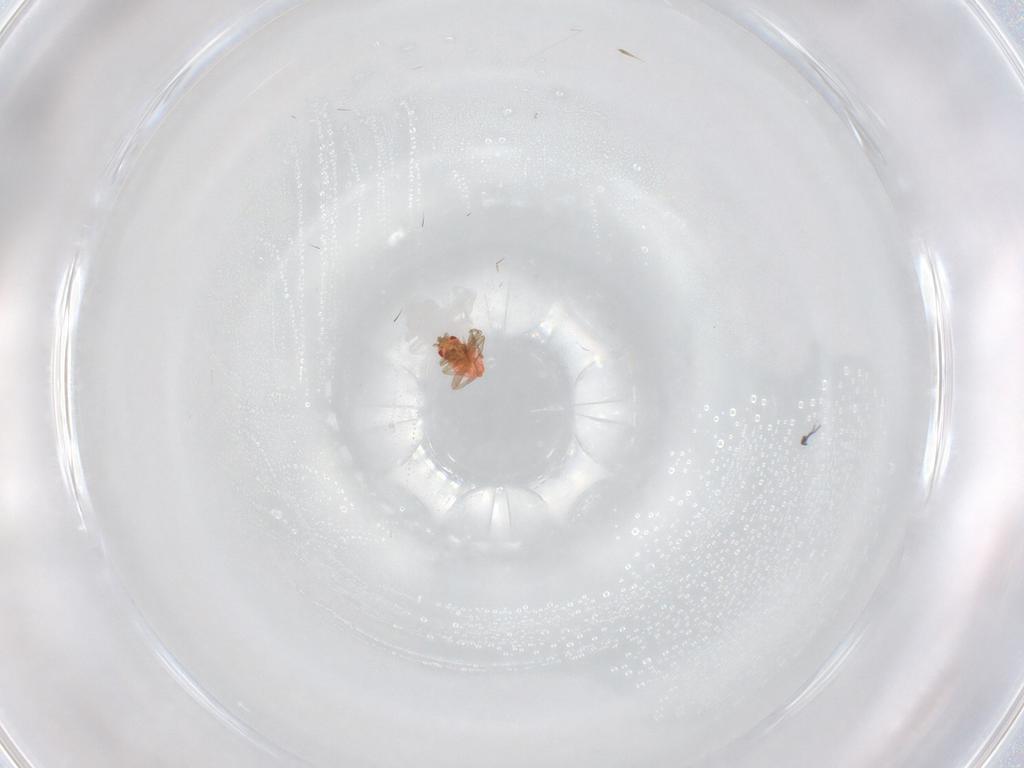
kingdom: Animalia
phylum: Arthropoda
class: Insecta
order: Hemiptera
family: Miridae
